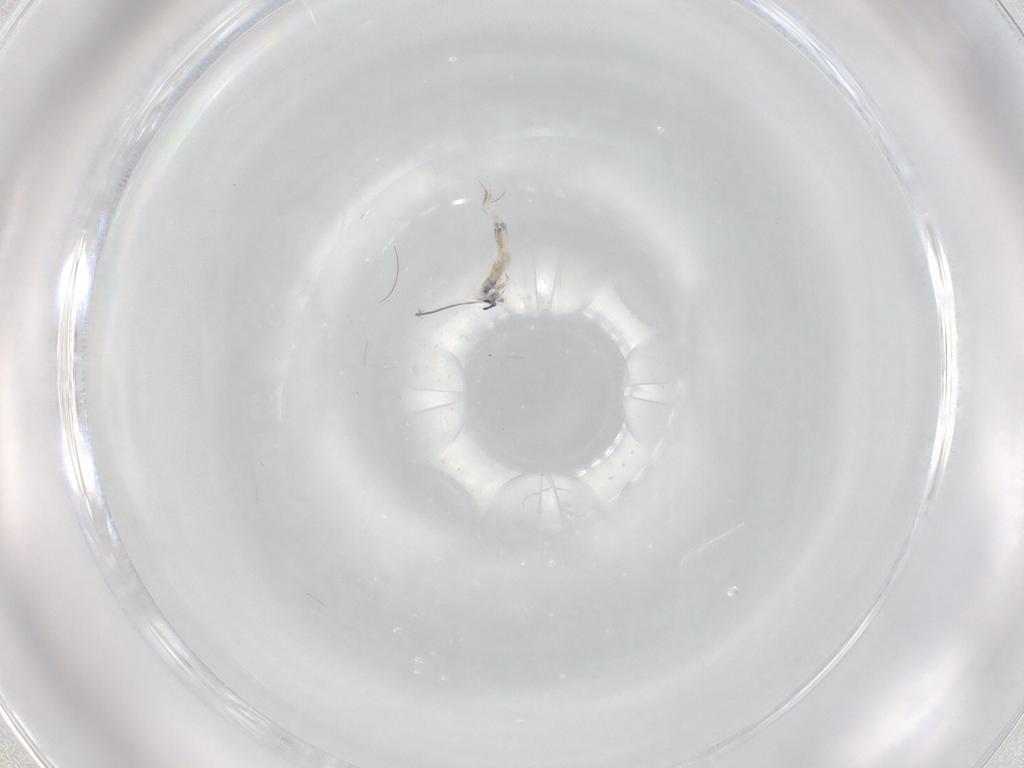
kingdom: Animalia
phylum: Arthropoda
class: Collembola
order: Entomobryomorpha
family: Entomobryidae
